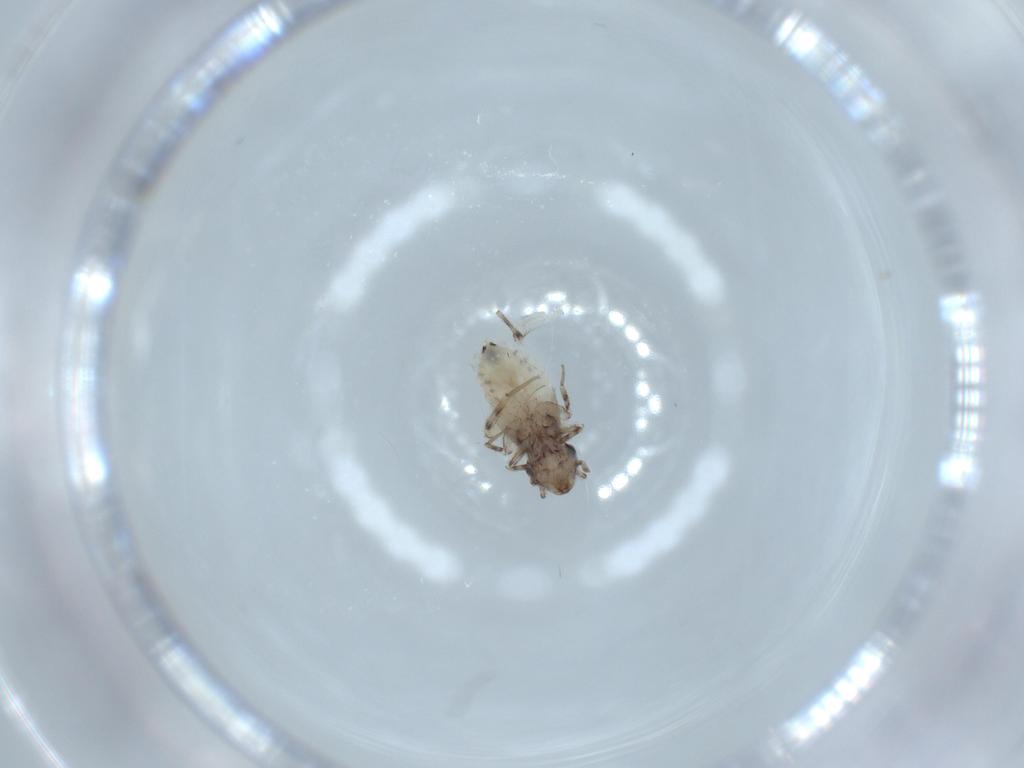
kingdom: Animalia
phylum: Arthropoda
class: Insecta
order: Psocodea
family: Lepidopsocidae
